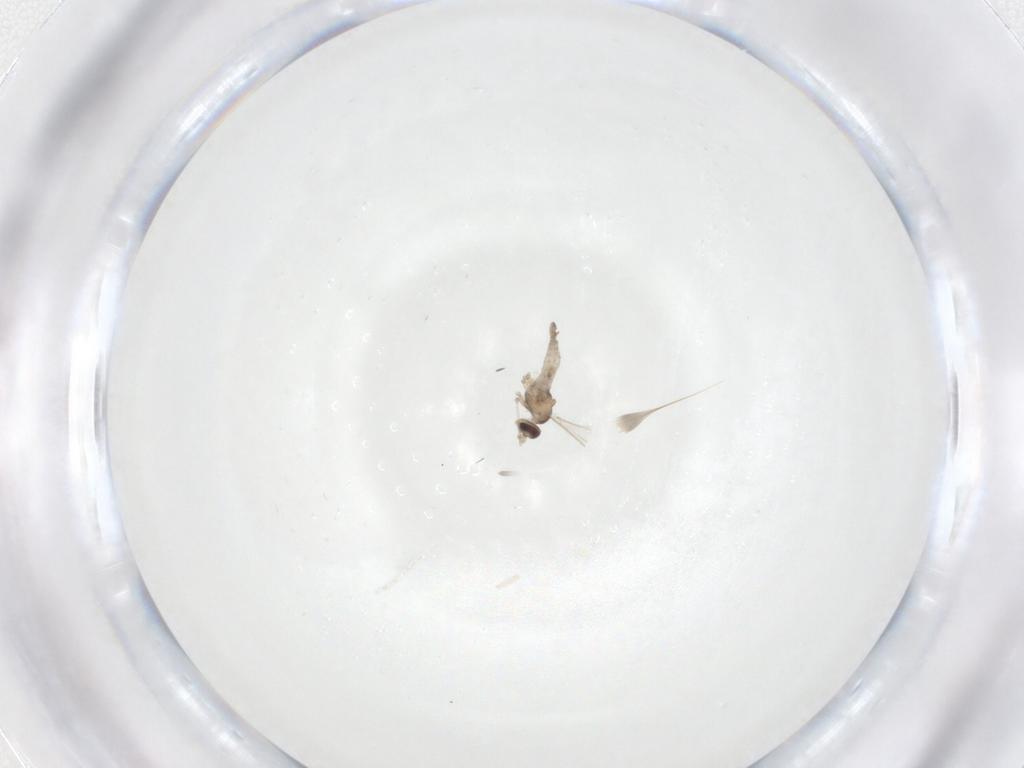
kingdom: Animalia
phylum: Arthropoda
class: Insecta
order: Diptera
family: Cecidomyiidae
